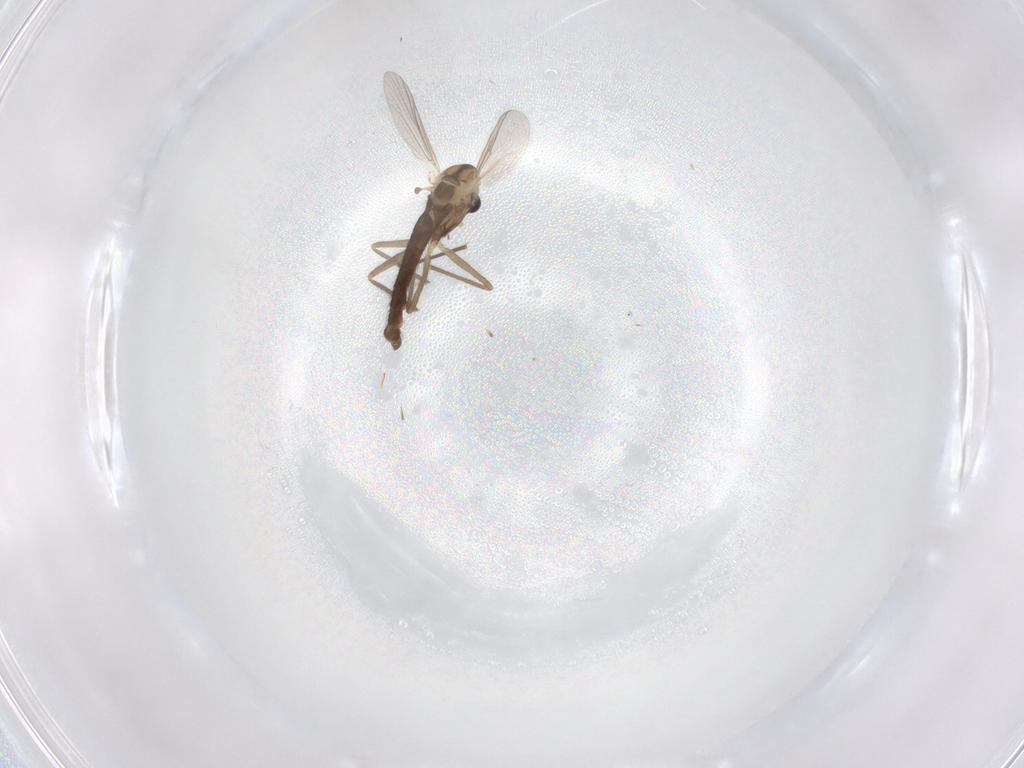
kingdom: Animalia
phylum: Arthropoda
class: Insecta
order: Diptera
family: Chironomidae
